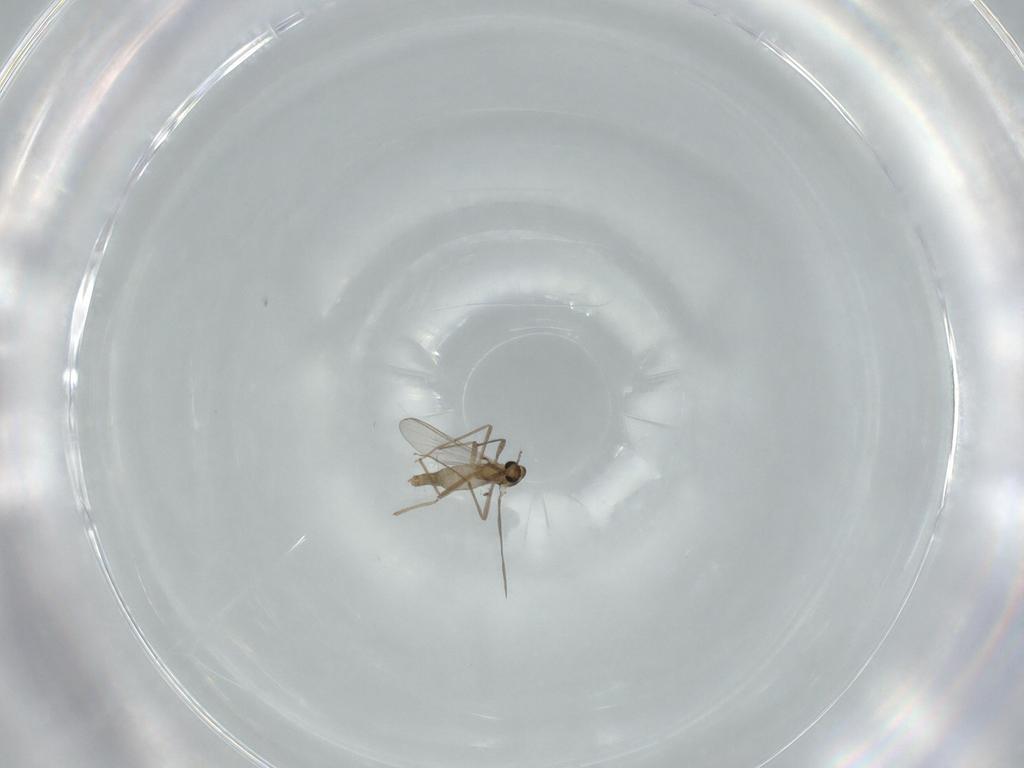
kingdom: Animalia
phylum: Arthropoda
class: Insecta
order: Diptera
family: Chironomidae
